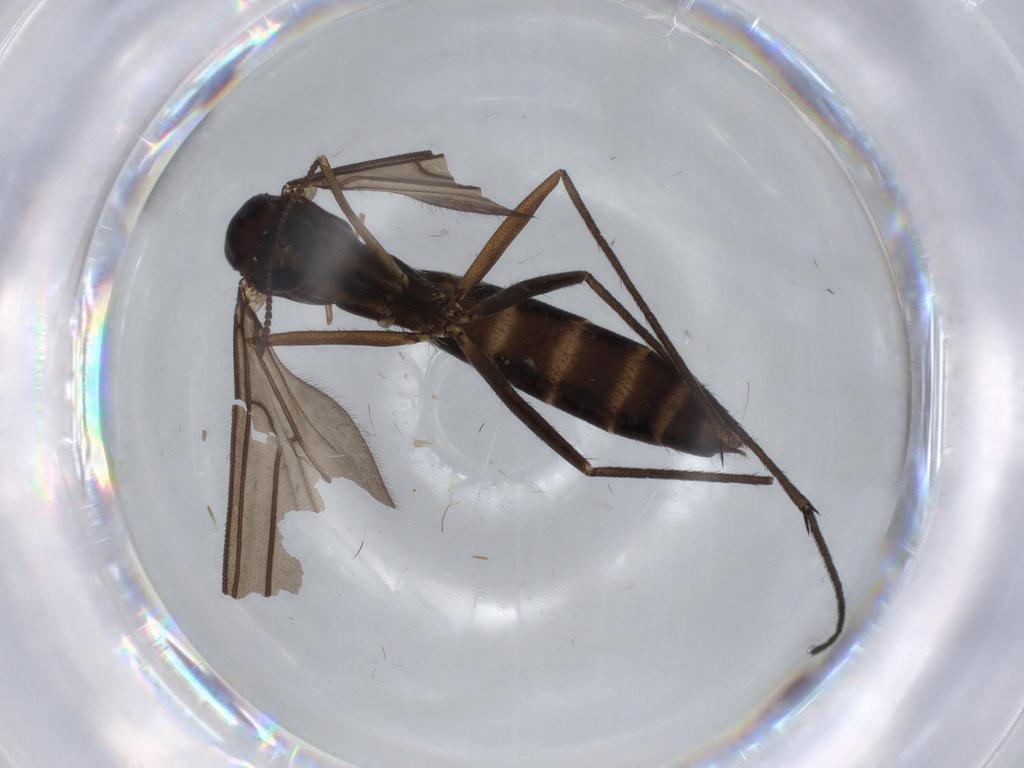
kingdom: Animalia
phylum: Arthropoda
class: Insecta
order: Diptera
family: Ditomyiidae
